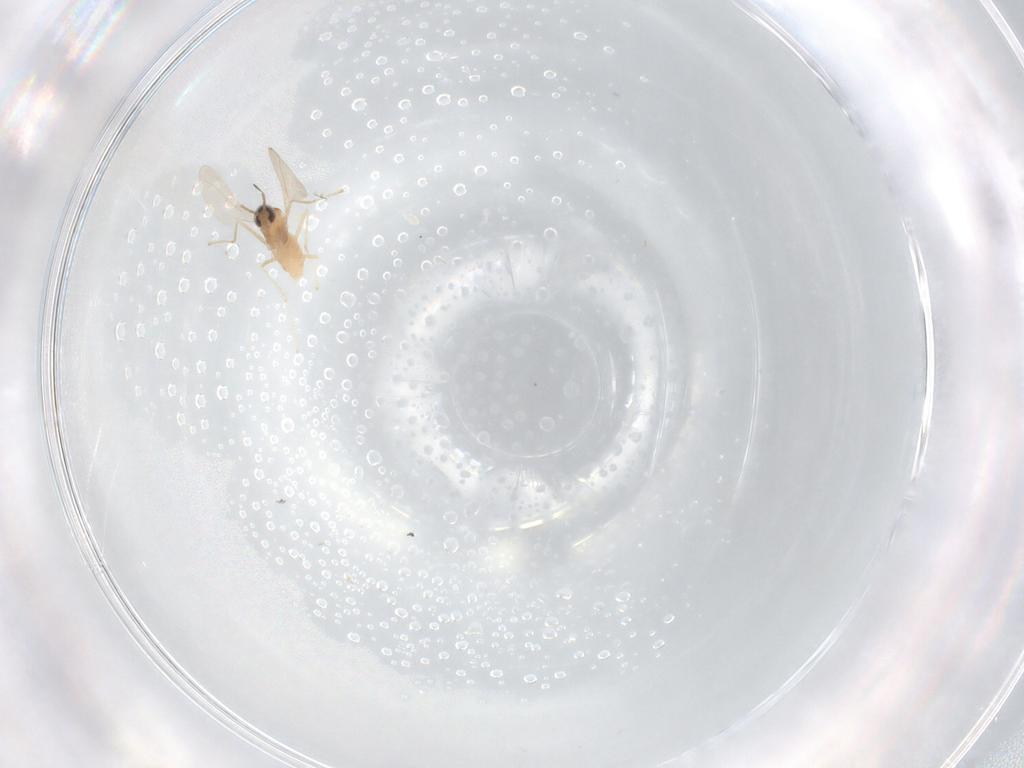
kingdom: Animalia
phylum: Arthropoda
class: Insecta
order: Diptera
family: Cecidomyiidae
